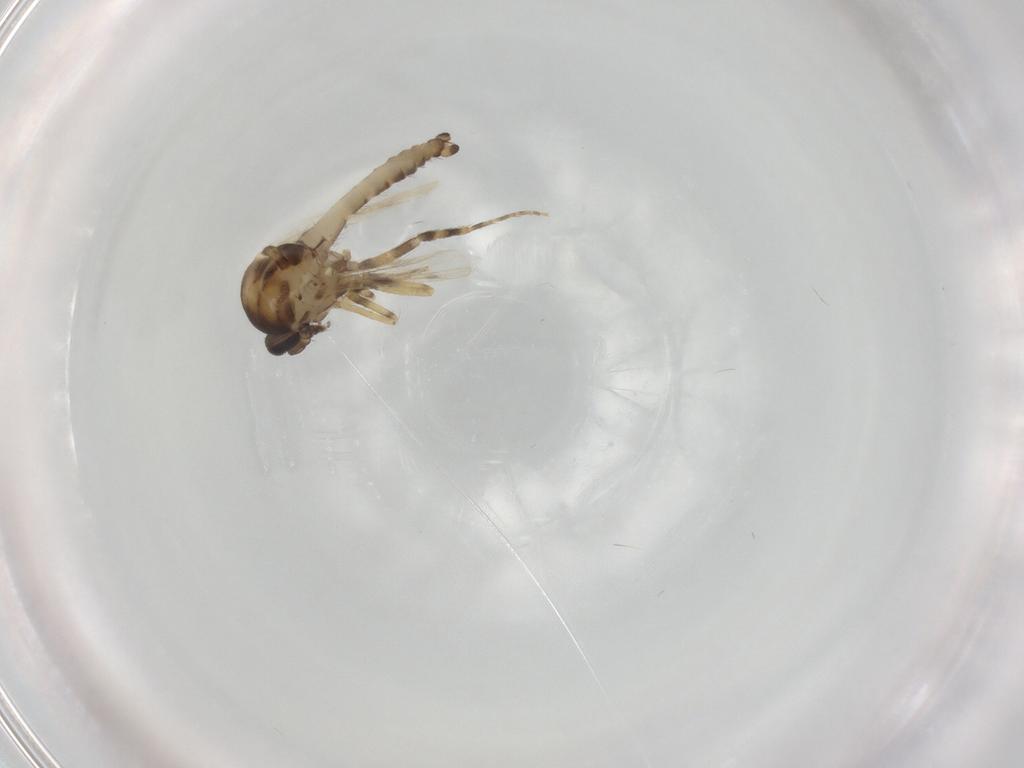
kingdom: Animalia
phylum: Arthropoda
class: Insecta
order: Diptera
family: Ceratopogonidae
